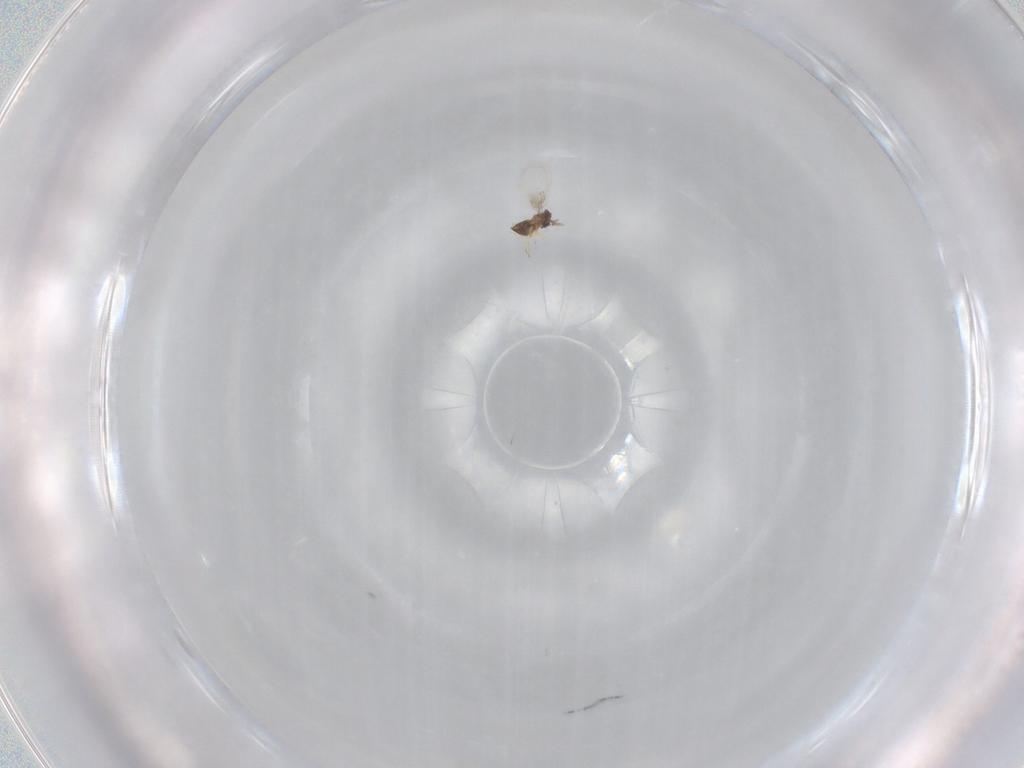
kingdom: Animalia
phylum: Arthropoda
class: Insecta
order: Hymenoptera
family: Trichogrammatidae
